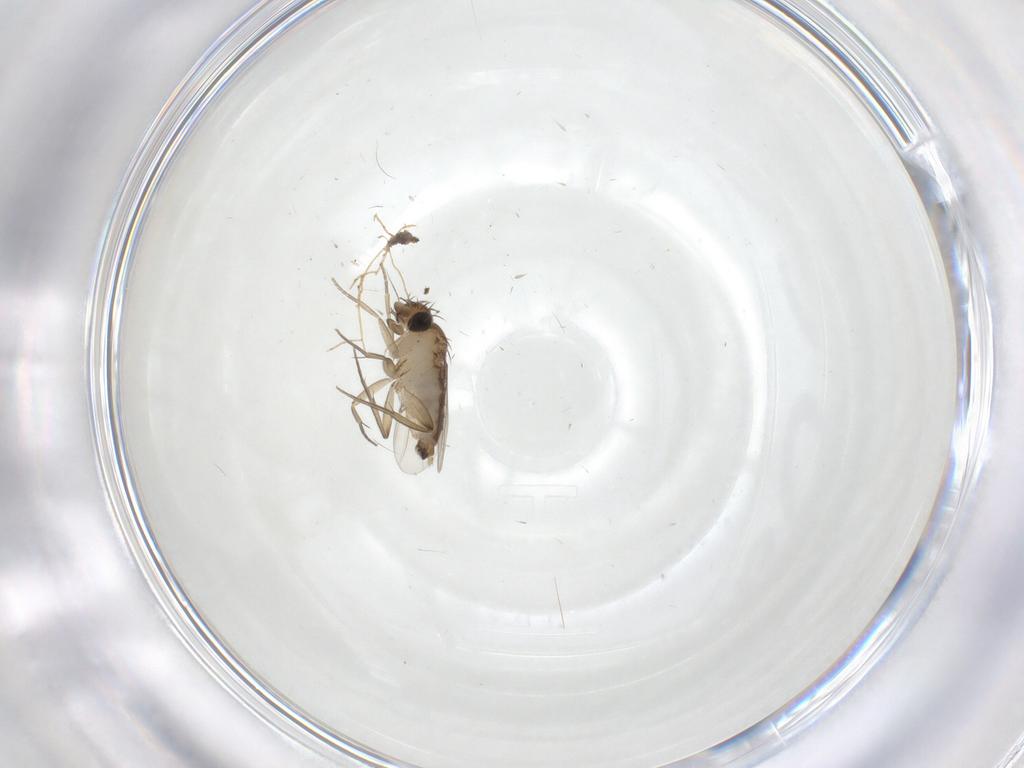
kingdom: Animalia
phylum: Arthropoda
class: Insecta
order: Diptera
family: Phoridae
